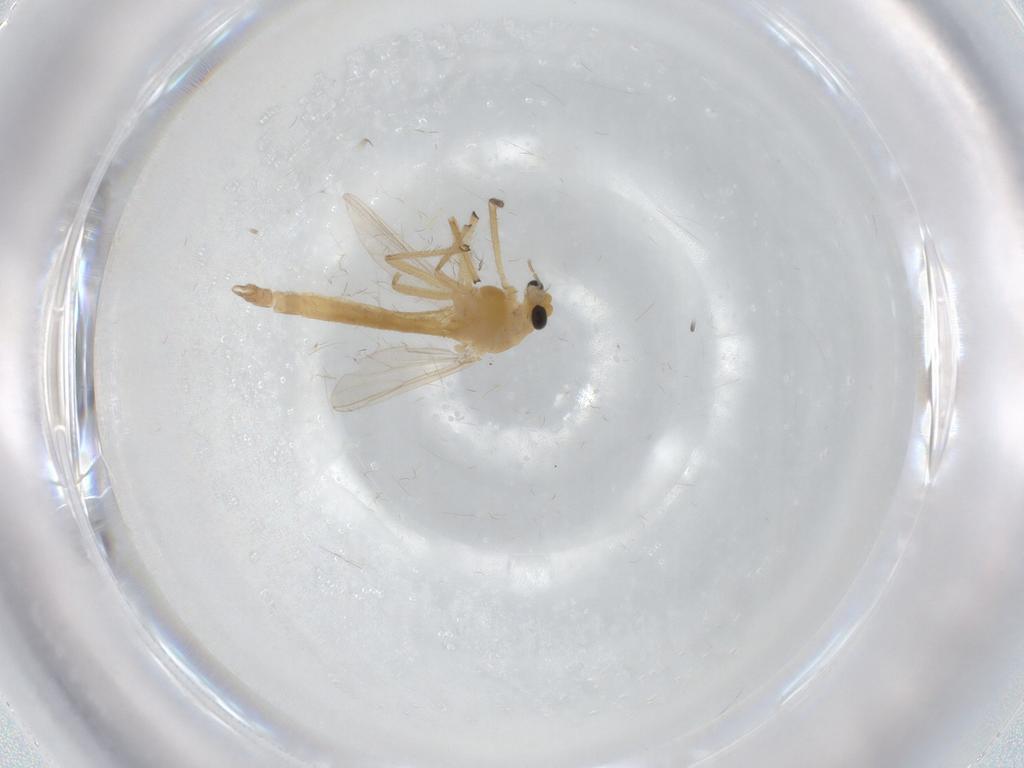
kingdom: Animalia
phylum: Arthropoda
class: Insecta
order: Diptera
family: Chironomidae
